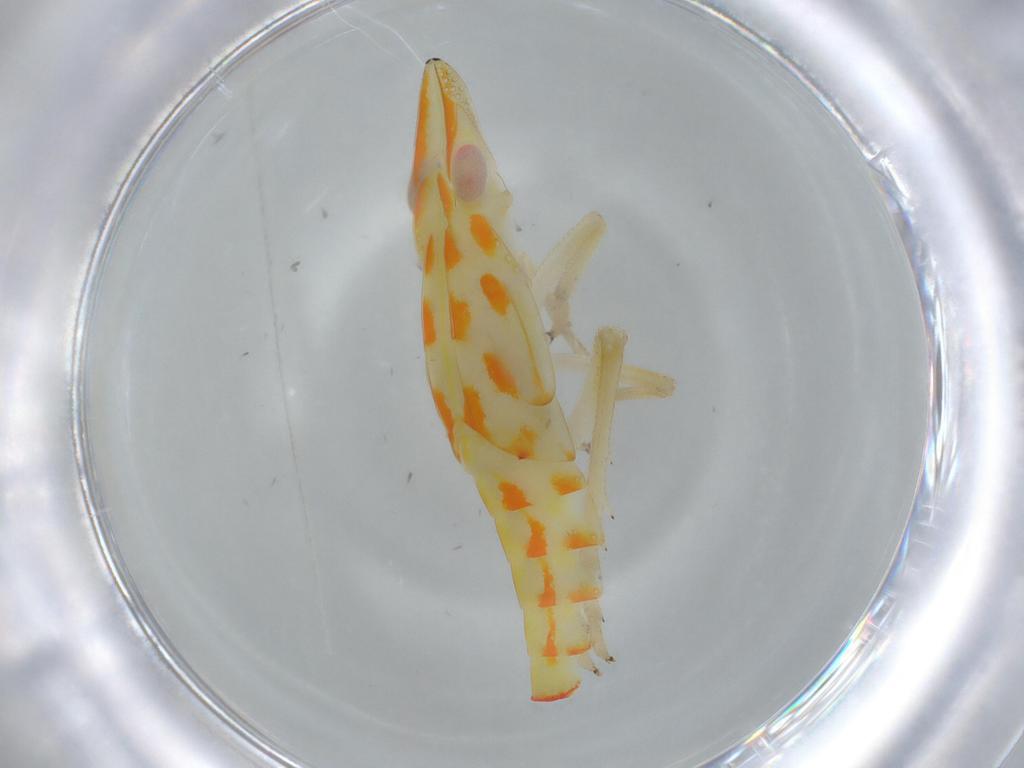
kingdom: Animalia
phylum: Arthropoda
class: Insecta
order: Hemiptera
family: Tropiduchidae
